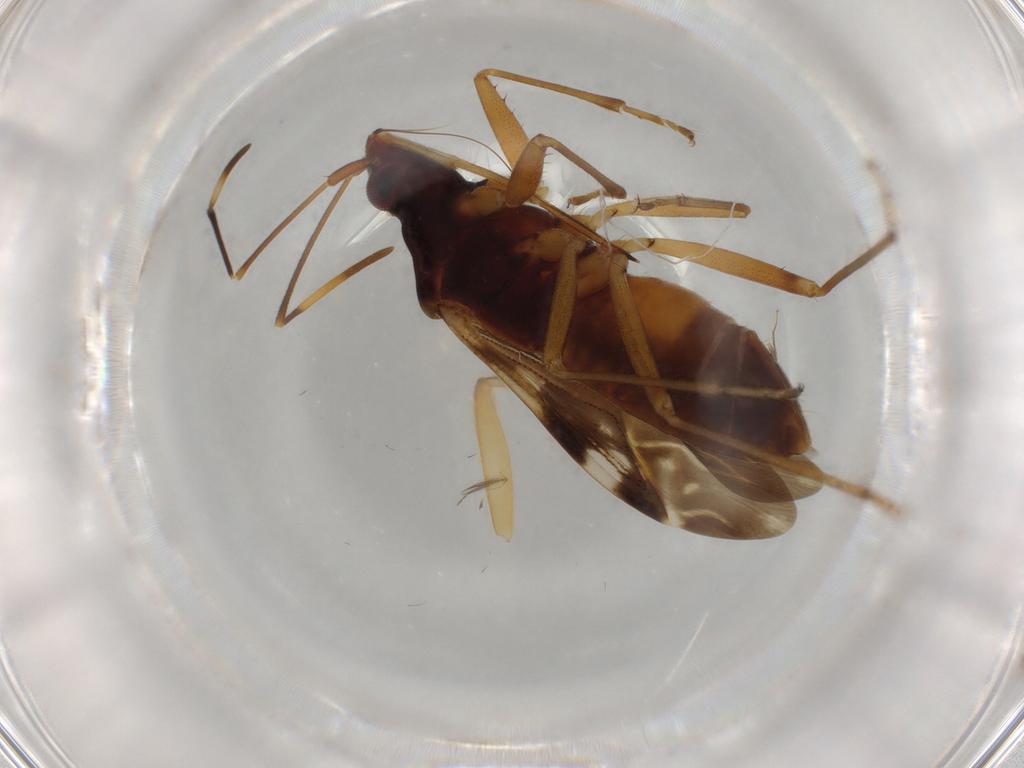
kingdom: Animalia
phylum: Arthropoda
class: Insecta
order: Hemiptera
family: Rhyparochromidae
